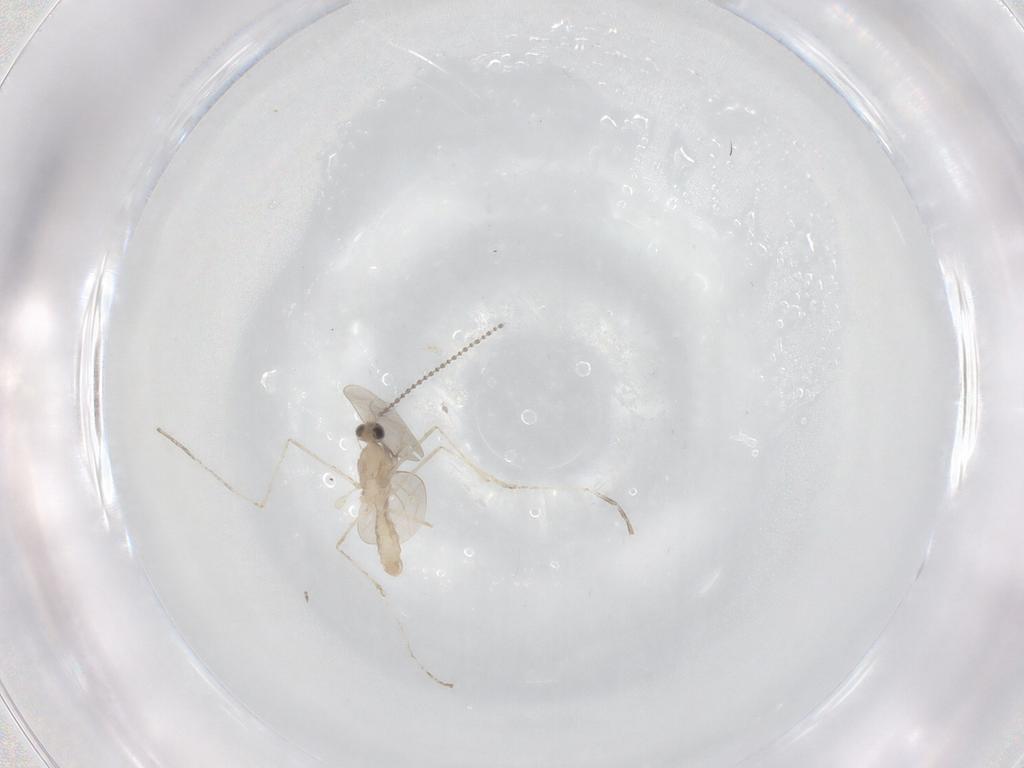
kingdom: Animalia
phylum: Arthropoda
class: Insecta
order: Diptera
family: Cecidomyiidae
